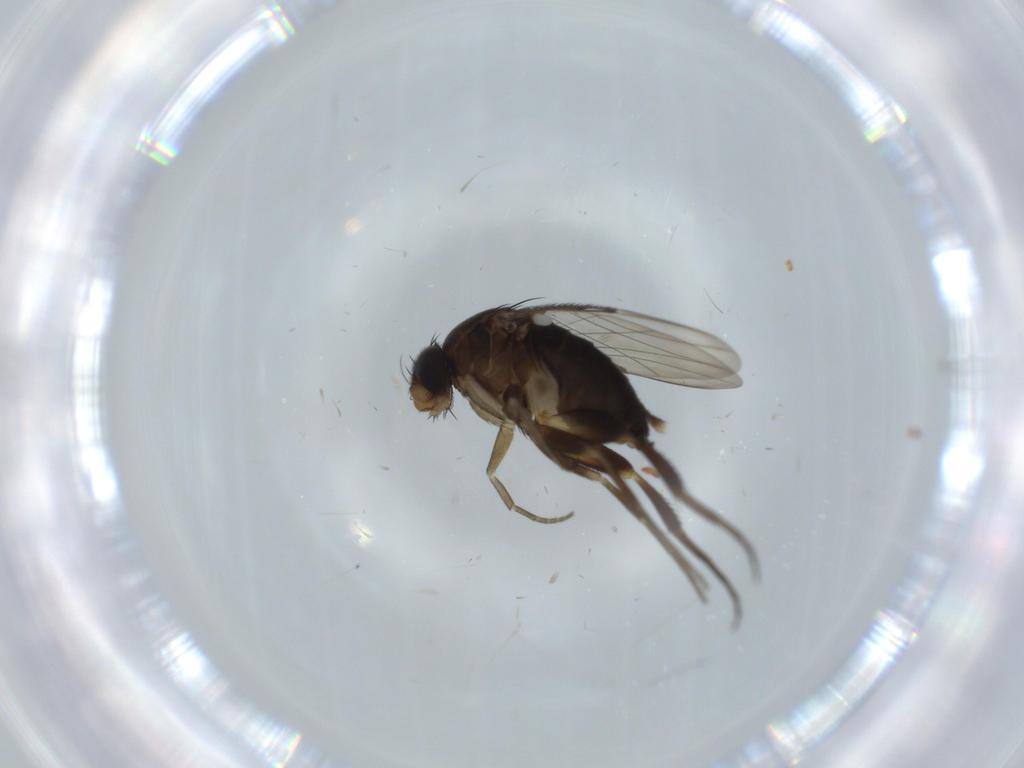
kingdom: Animalia
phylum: Arthropoda
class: Insecta
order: Diptera
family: Phoridae
